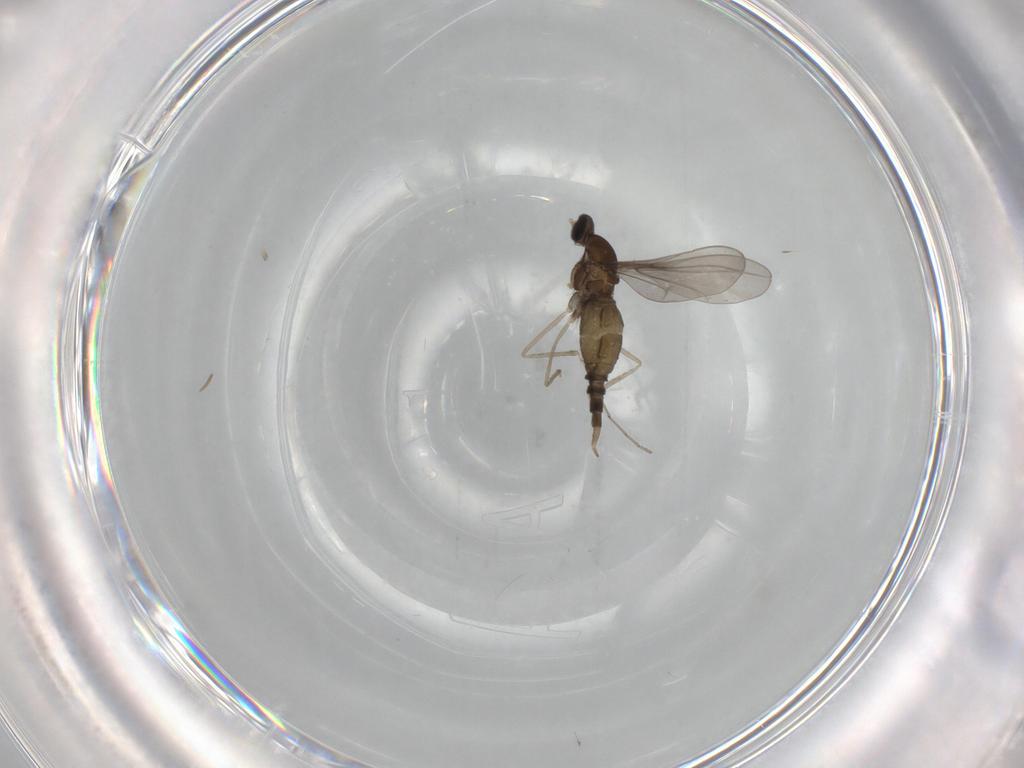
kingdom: Animalia
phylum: Arthropoda
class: Insecta
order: Diptera
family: Cecidomyiidae
